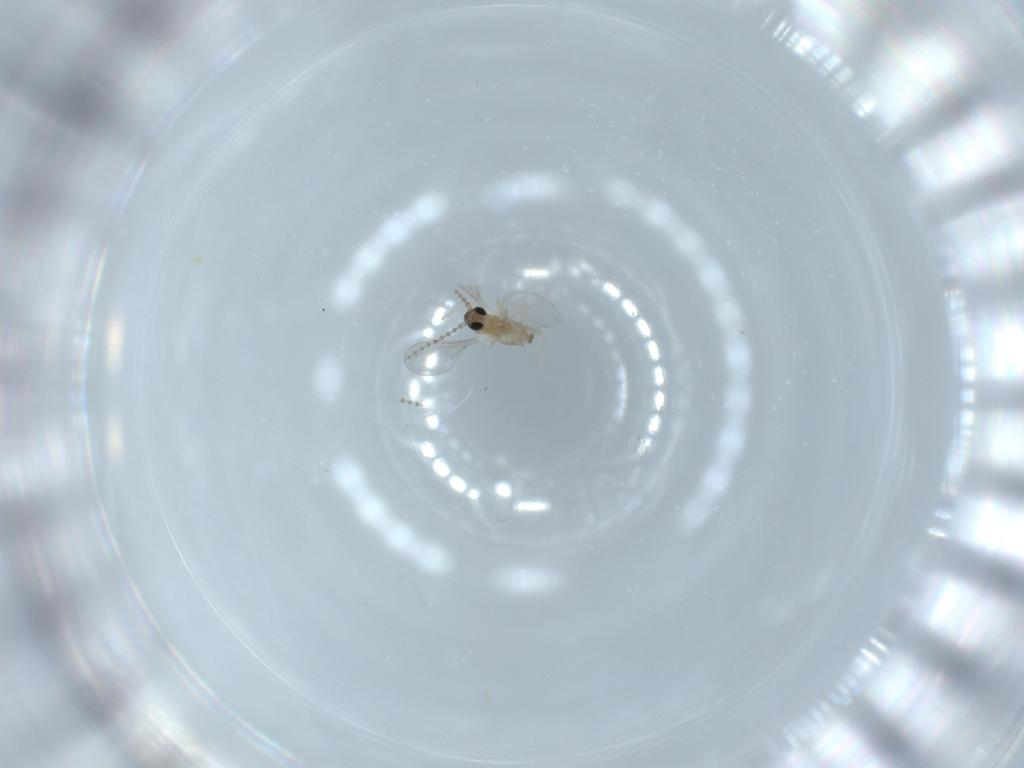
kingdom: Animalia
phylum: Arthropoda
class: Insecta
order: Diptera
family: Cecidomyiidae
